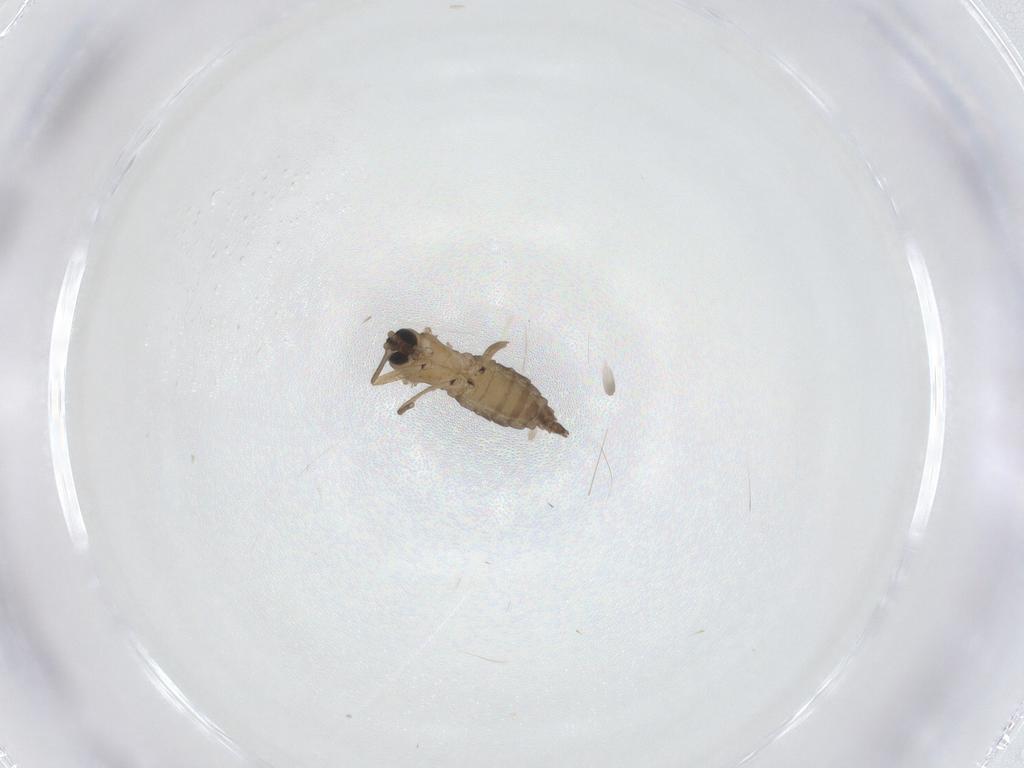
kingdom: Animalia
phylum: Arthropoda
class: Insecta
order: Diptera
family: Sciaridae
